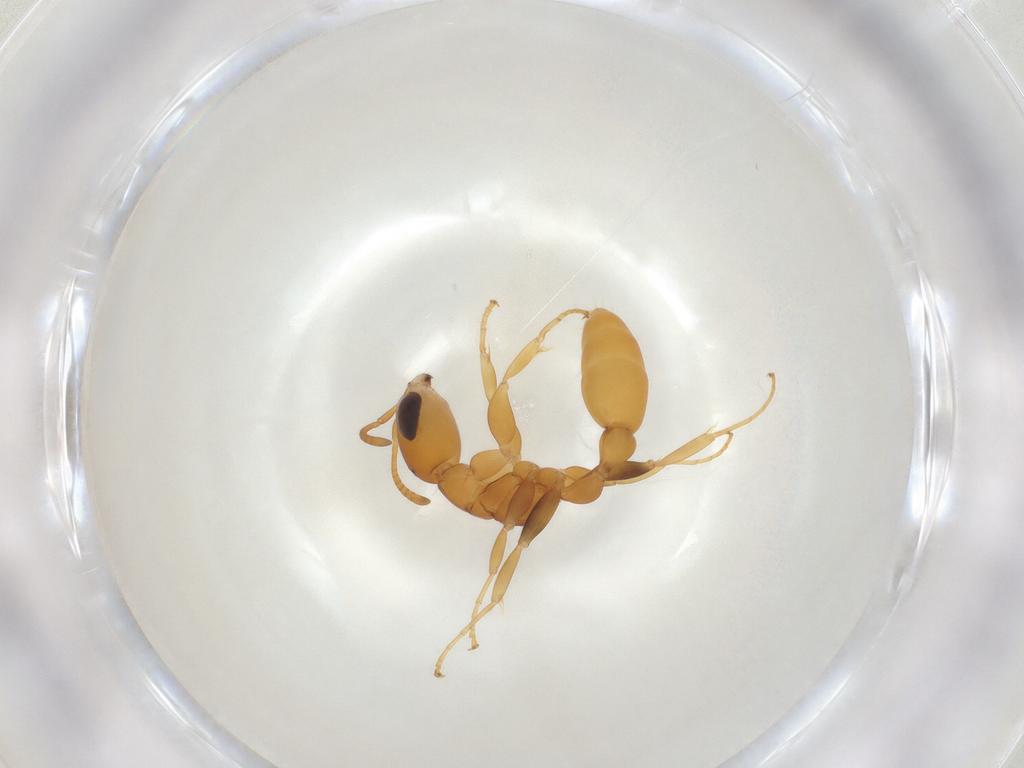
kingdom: Animalia
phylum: Arthropoda
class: Insecta
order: Hymenoptera
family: Formicidae
